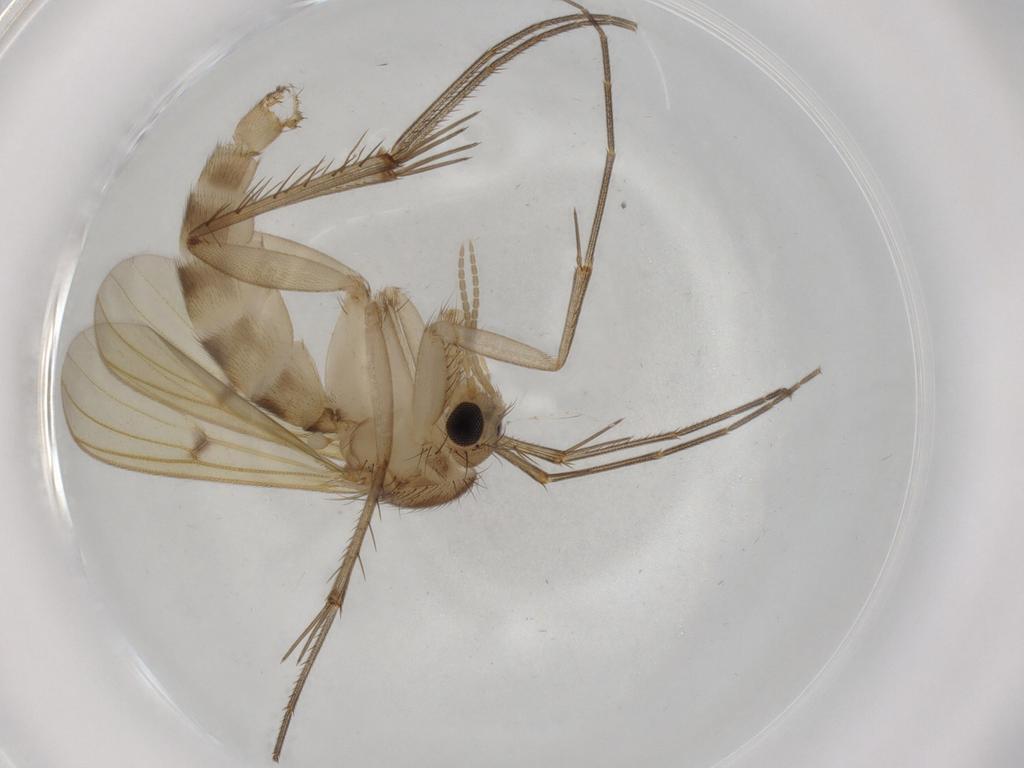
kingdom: Animalia
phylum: Arthropoda
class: Insecta
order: Diptera
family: Mycetophilidae
